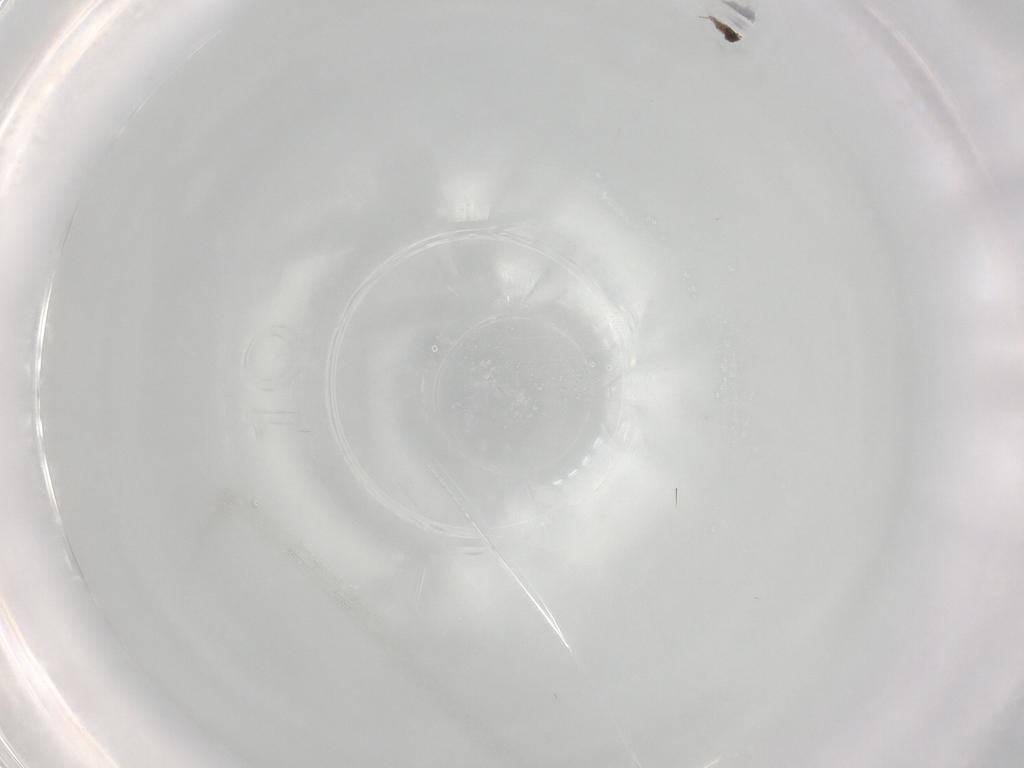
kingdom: Animalia
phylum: Arthropoda
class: Insecta
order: Hymenoptera
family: Mymaridae
